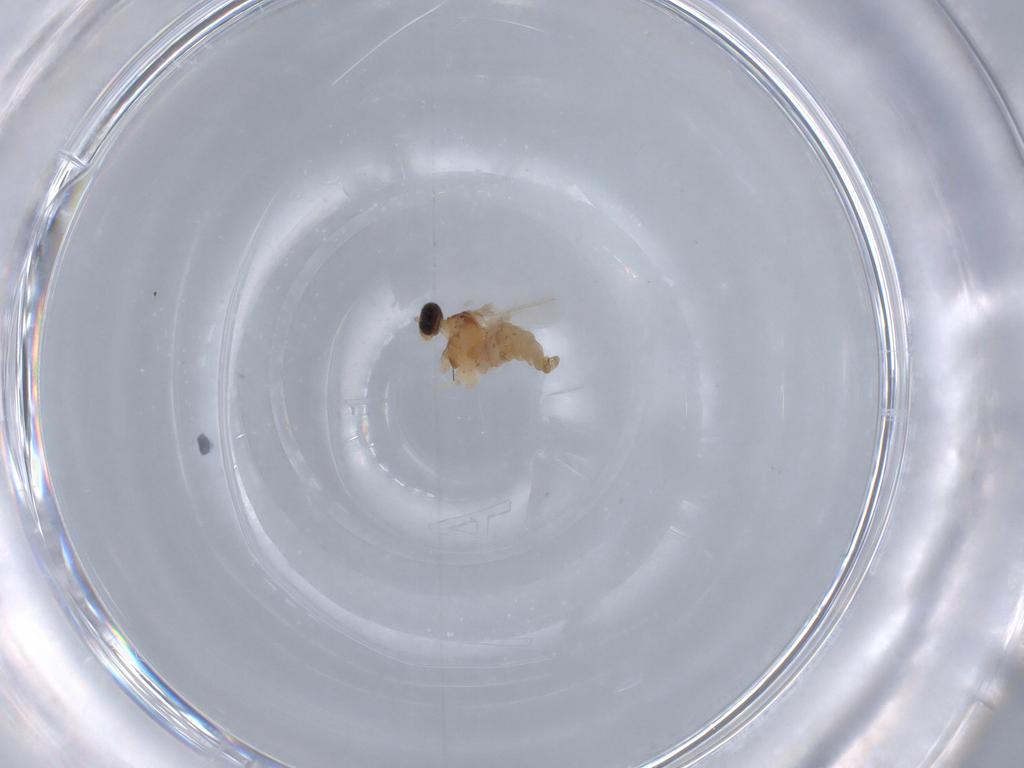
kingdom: Animalia
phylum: Arthropoda
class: Insecta
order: Diptera
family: Cecidomyiidae
